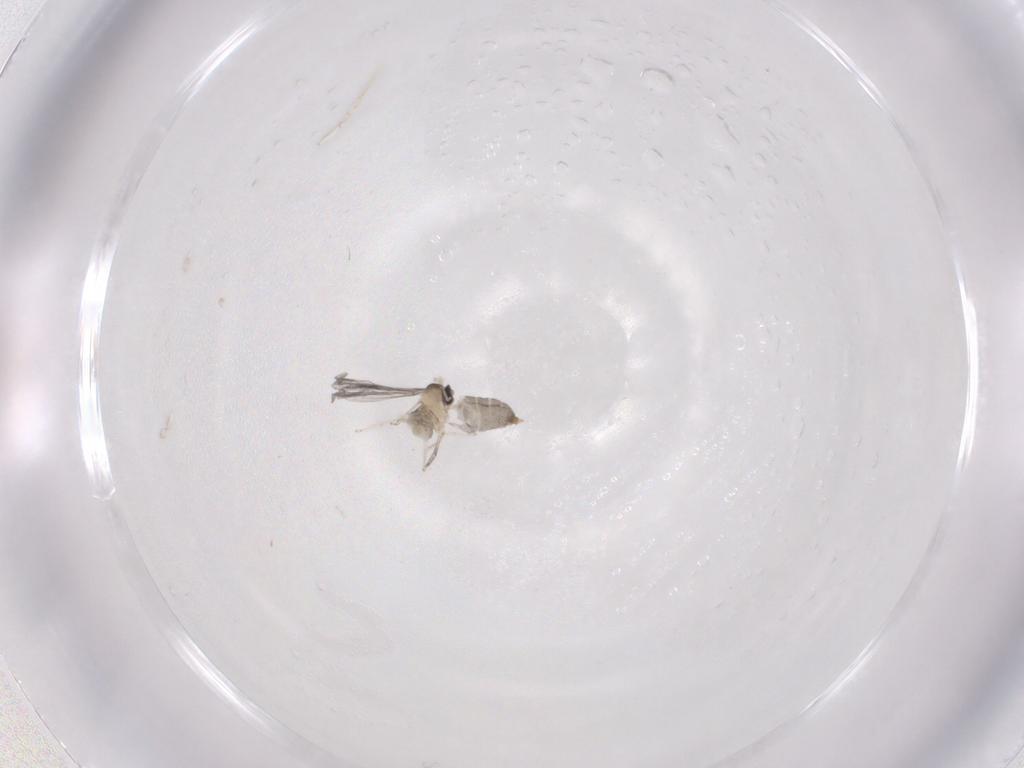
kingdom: Animalia
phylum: Arthropoda
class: Insecta
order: Diptera
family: Cecidomyiidae
